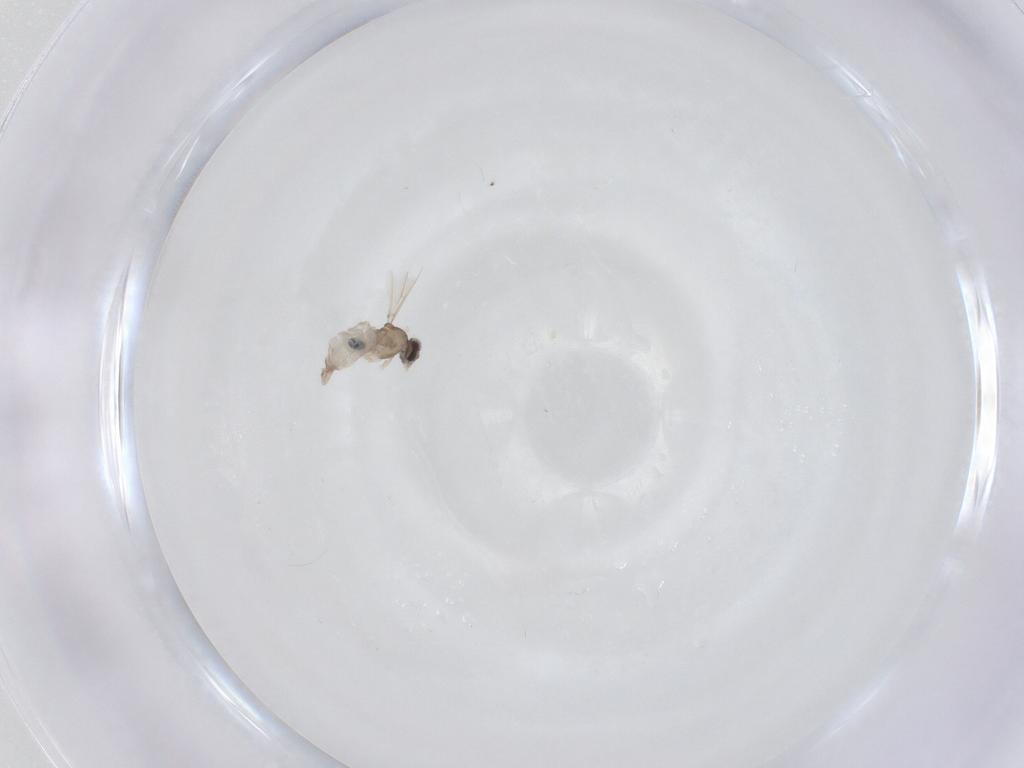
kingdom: Animalia
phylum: Arthropoda
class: Insecta
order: Diptera
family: Cecidomyiidae
